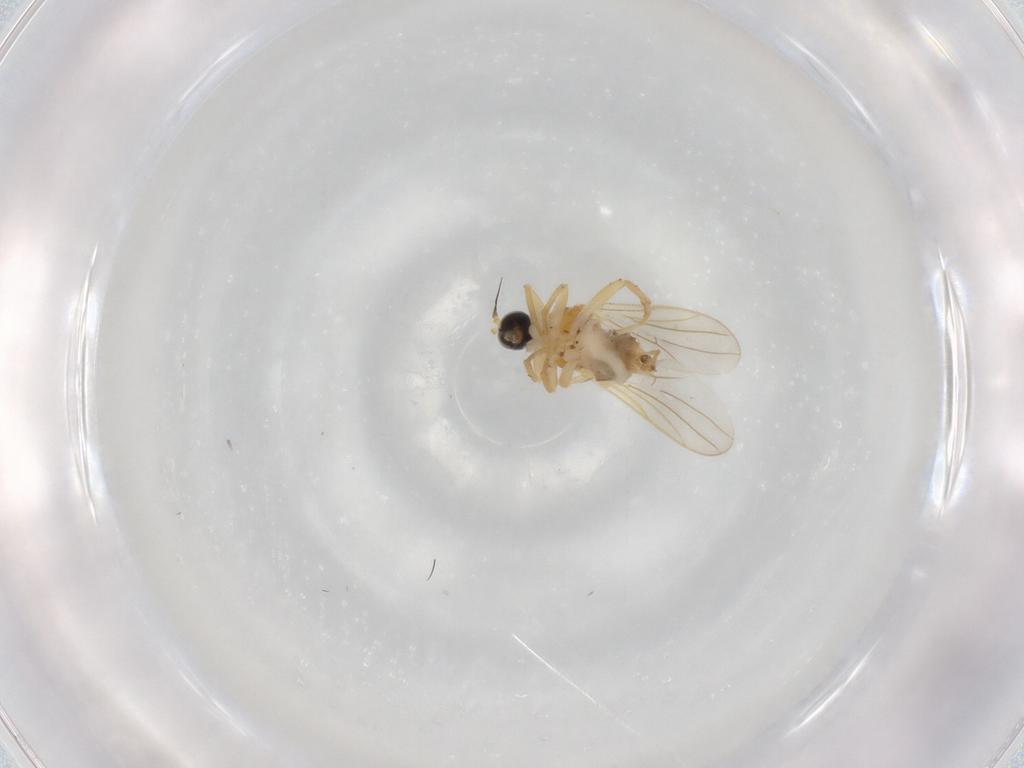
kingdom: Animalia
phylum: Arthropoda
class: Insecta
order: Diptera
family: Hybotidae
